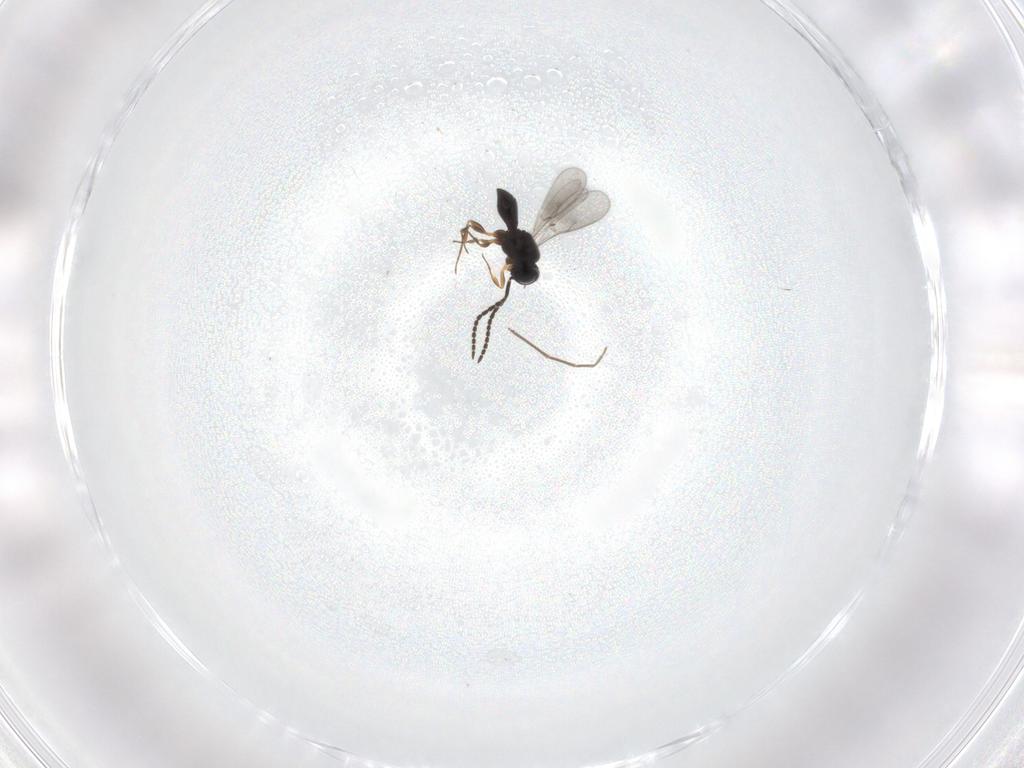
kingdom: Animalia
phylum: Arthropoda
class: Insecta
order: Hymenoptera
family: Scelionidae
